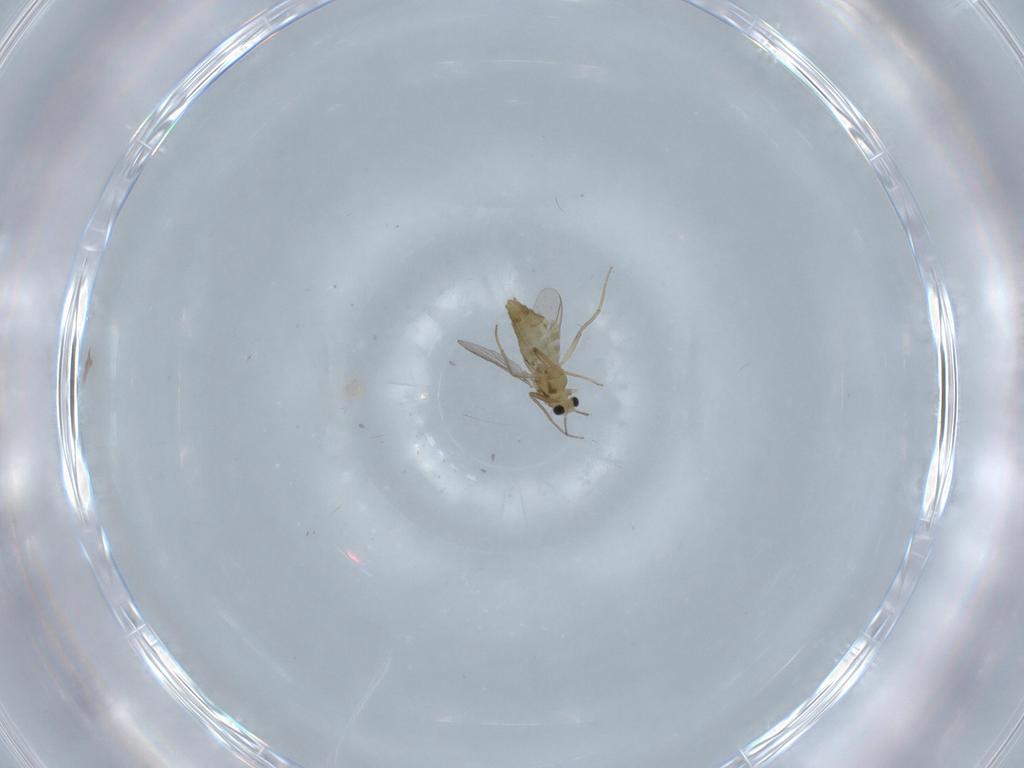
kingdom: Animalia
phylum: Arthropoda
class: Insecta
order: Diptera
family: Chironomidae
